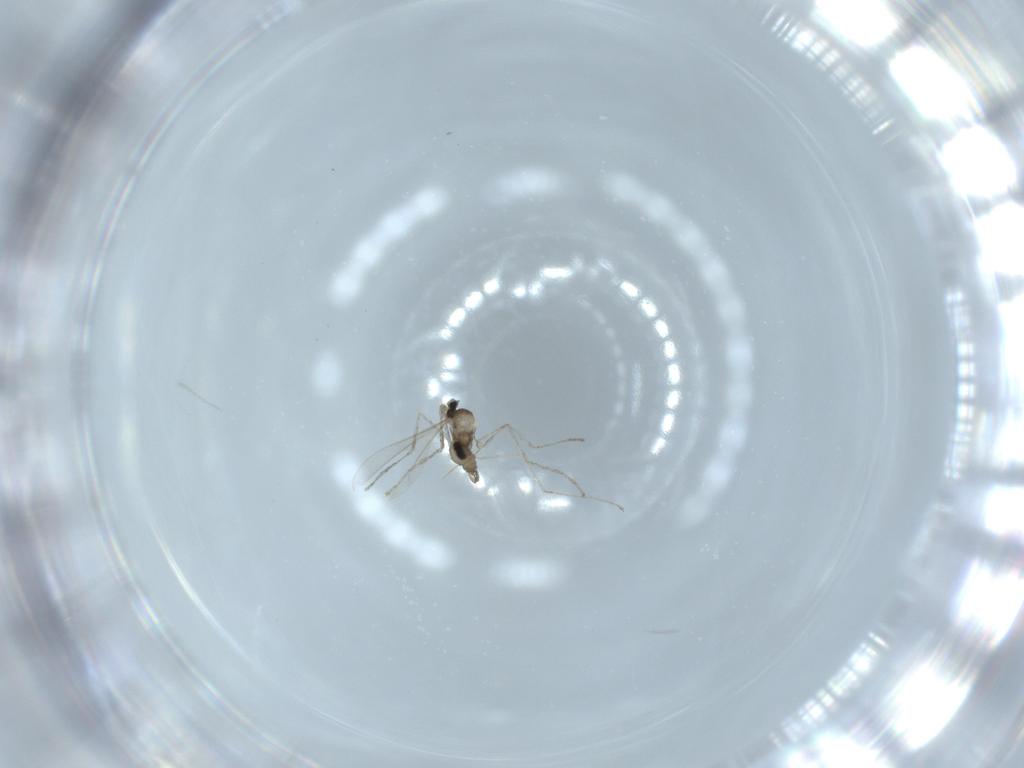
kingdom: Animalia
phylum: Arthropoda
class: Insecta
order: Diptera
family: Cecidomyiidae
